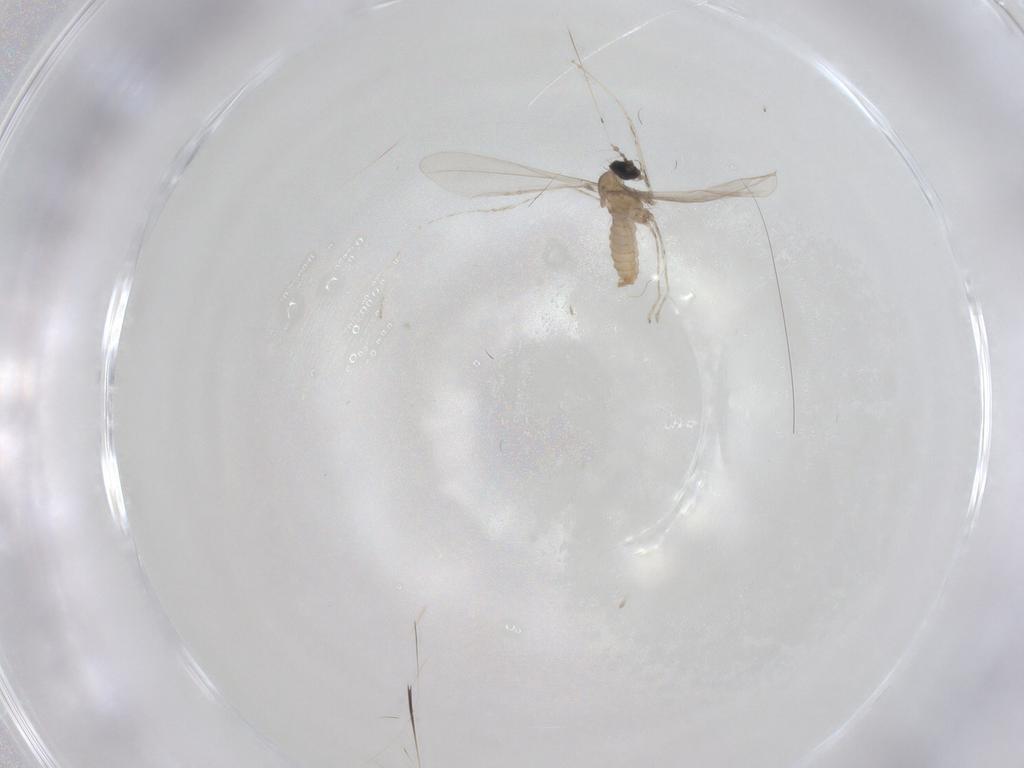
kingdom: Animalia
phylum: Arthropoda
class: Insecta
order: Diptera
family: Cecidomyiidae
